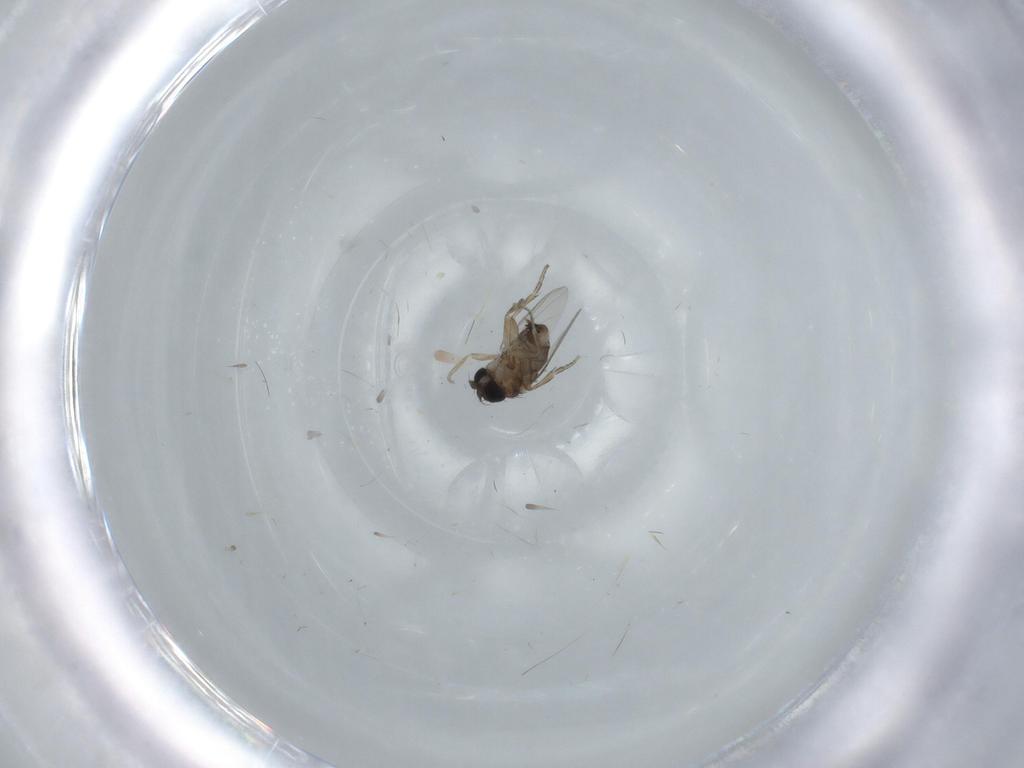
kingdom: Animalia
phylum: Arthropoda
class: Insecta
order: Diptera
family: Phoridae
